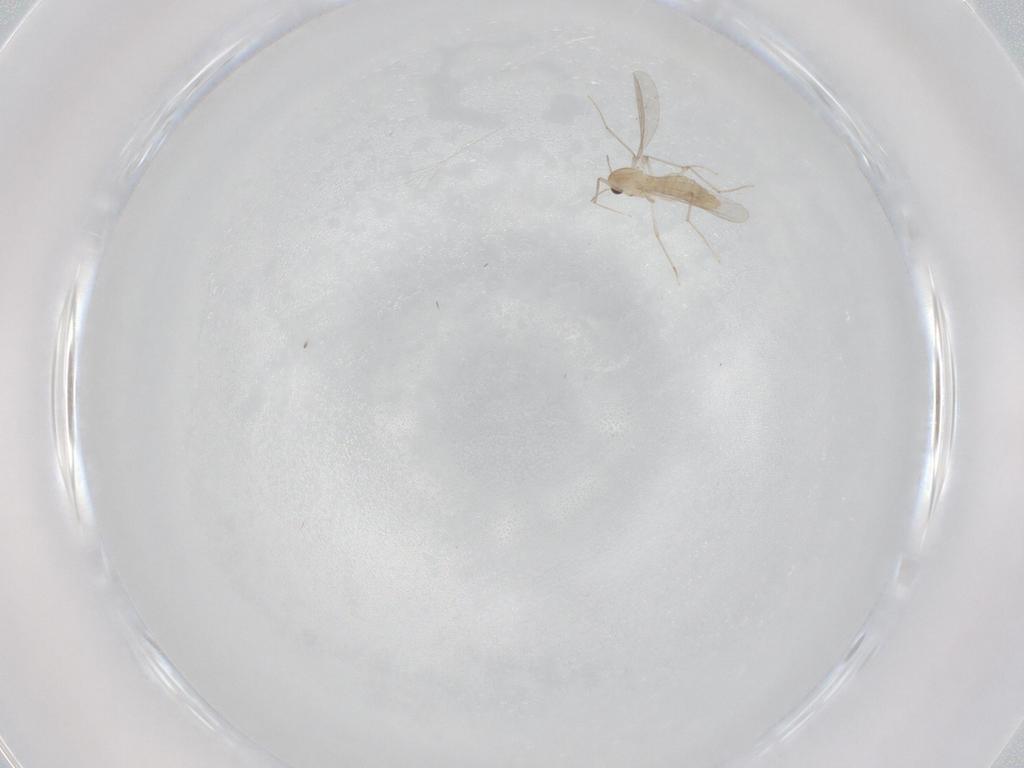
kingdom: Animalia
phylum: Arthropoda
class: Insecta
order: Diptera
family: Chironomidae
